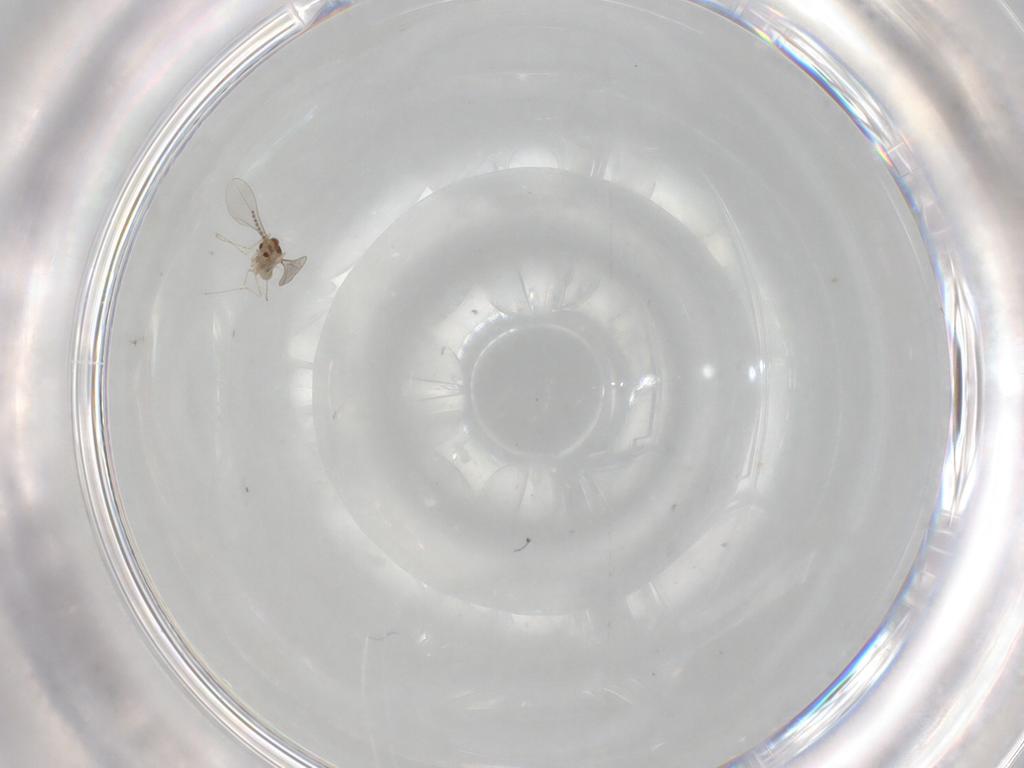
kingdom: Animalia
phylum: Arthropoda
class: Insecta
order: Diptera
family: Cecidomyiidae
